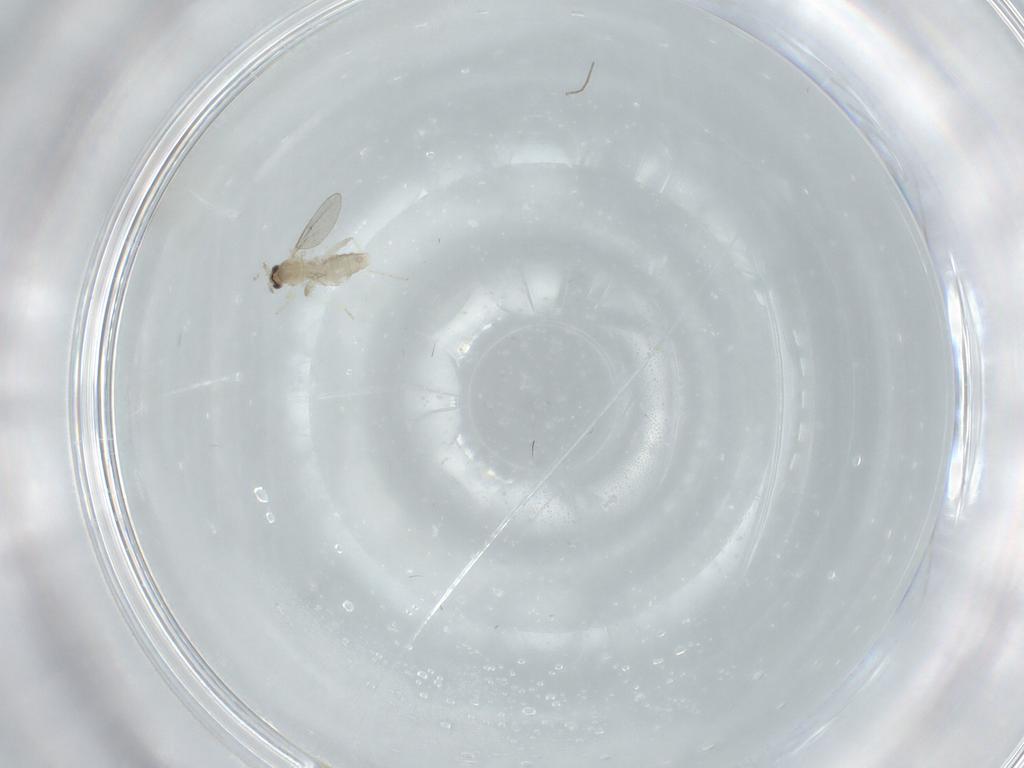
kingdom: Animalia
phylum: Arthropoda
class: Insecta
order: Diptera
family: Cecidomyiidae
